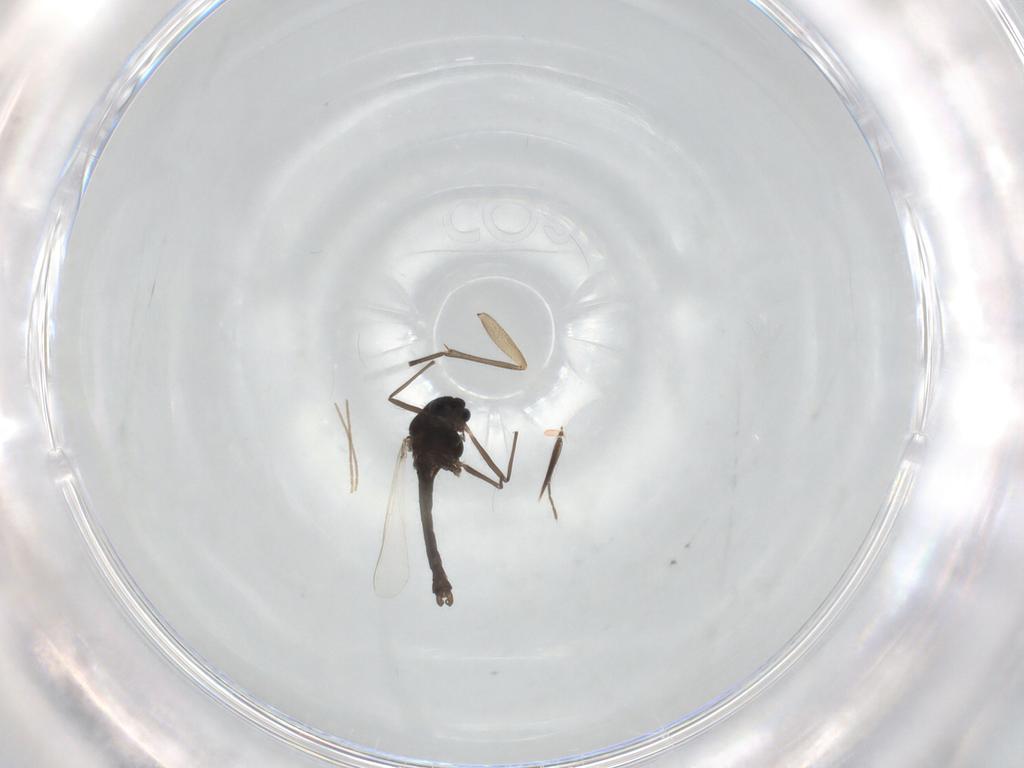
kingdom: Animalia
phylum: Arthropoda
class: Insecta
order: Diptera
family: Chironomidae
